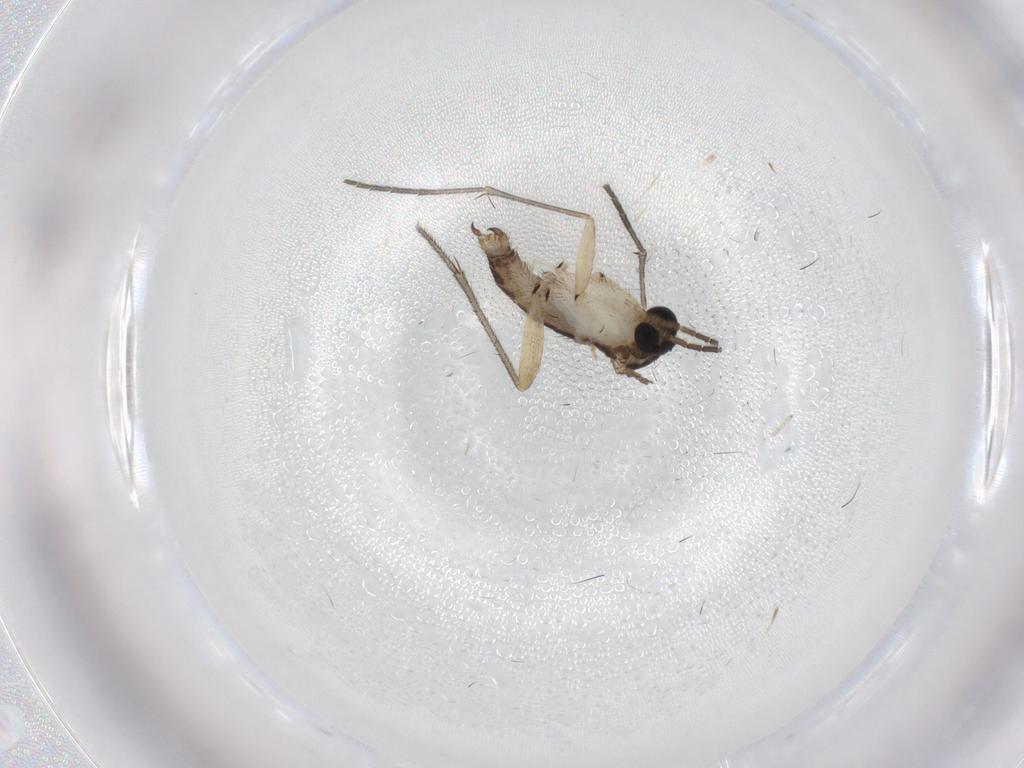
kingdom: Animalia
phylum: Arthropoda
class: Insecta
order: Diptera
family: Sciaridae
